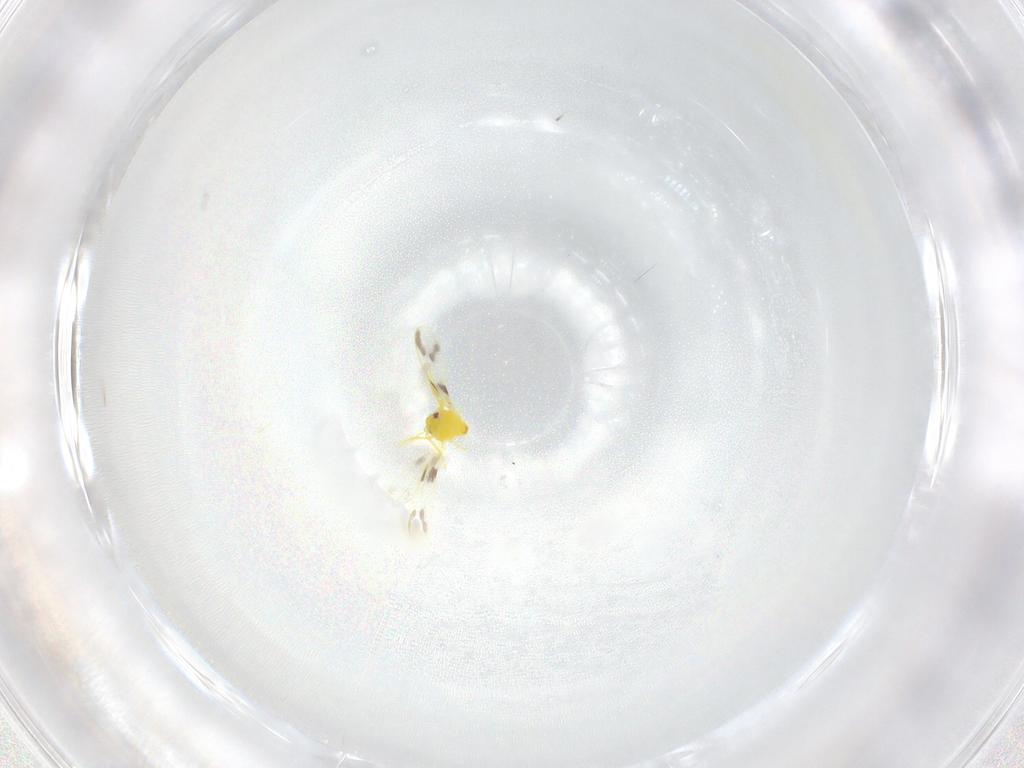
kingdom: Animalia
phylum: Arthropoda
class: Insecta
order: Hemiptera
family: Aleyrodidae
